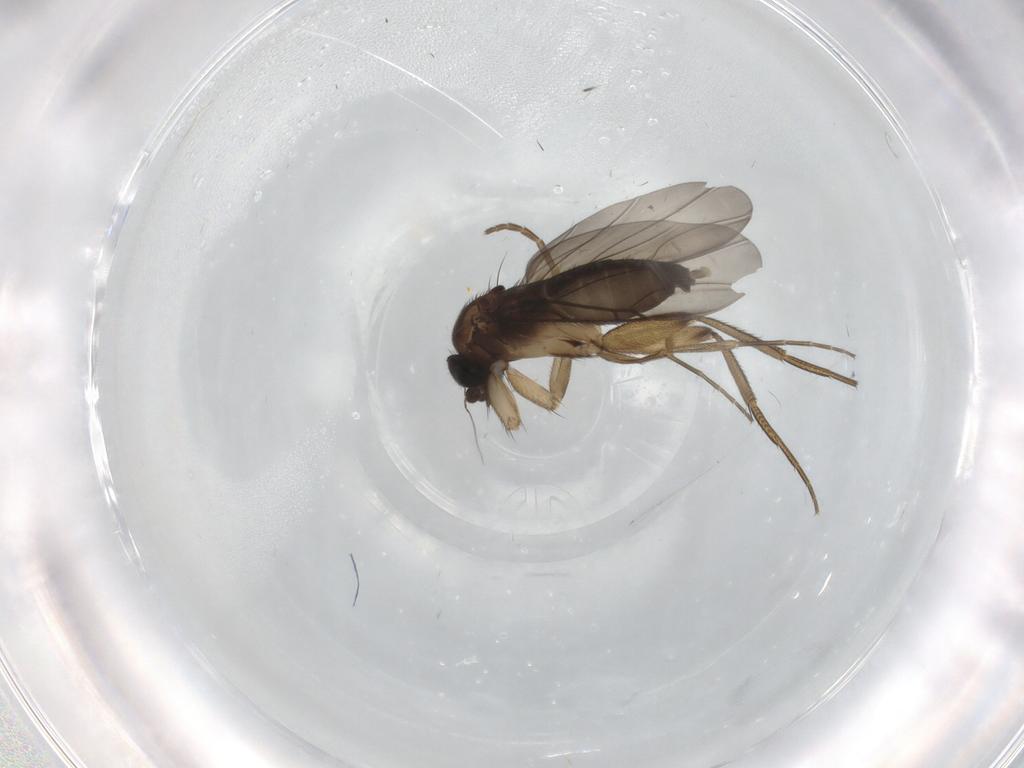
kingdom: Animalia
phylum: Arthropoda
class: Insecta
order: Diptera
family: Phoridae
